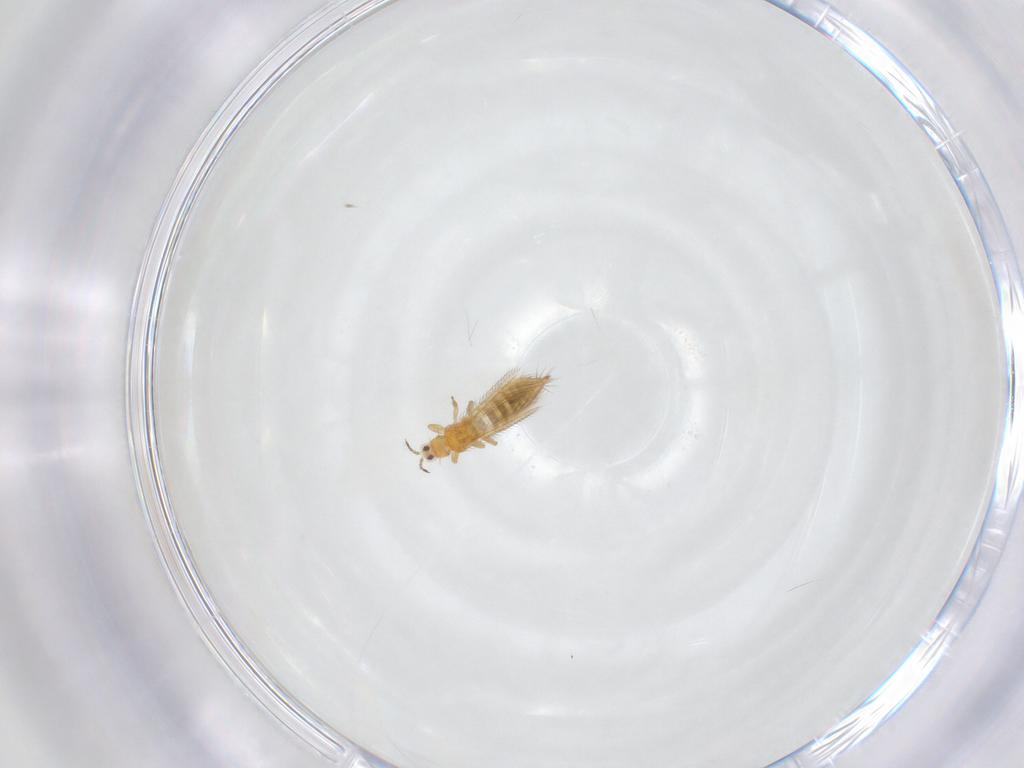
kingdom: Animalia
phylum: Arthropoda
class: Insecta
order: Thysanoptera
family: Thripidae
